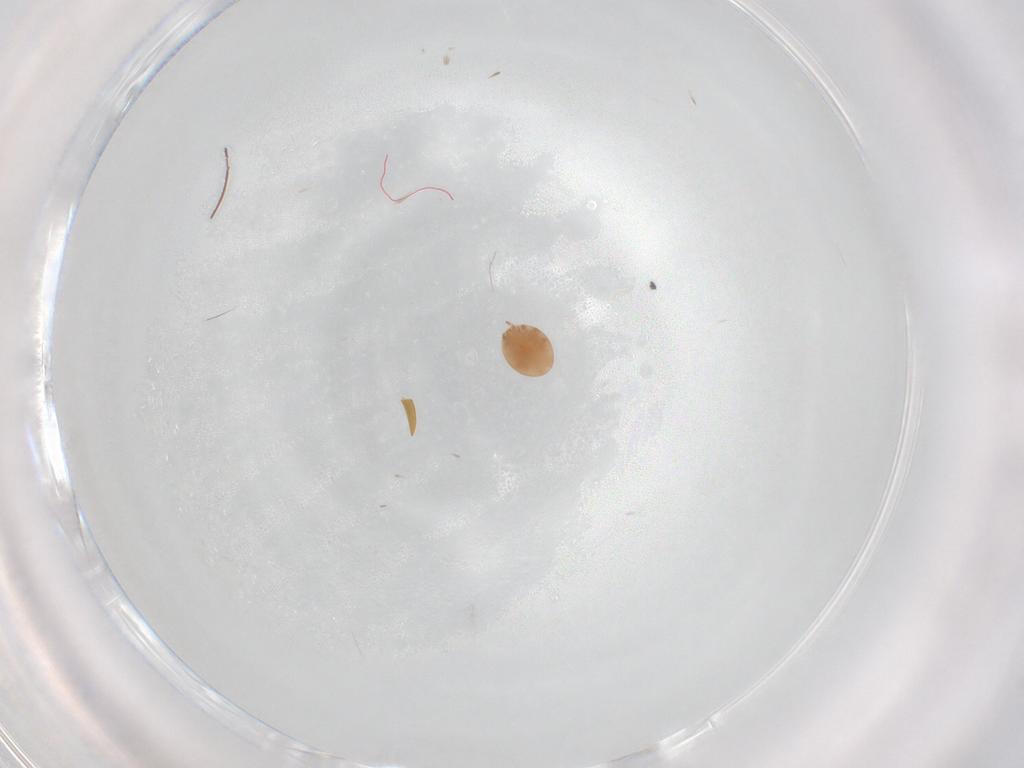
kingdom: Animalia
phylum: Arthropoda
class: Arachnida
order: Mesostigmata
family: Trematuridae
